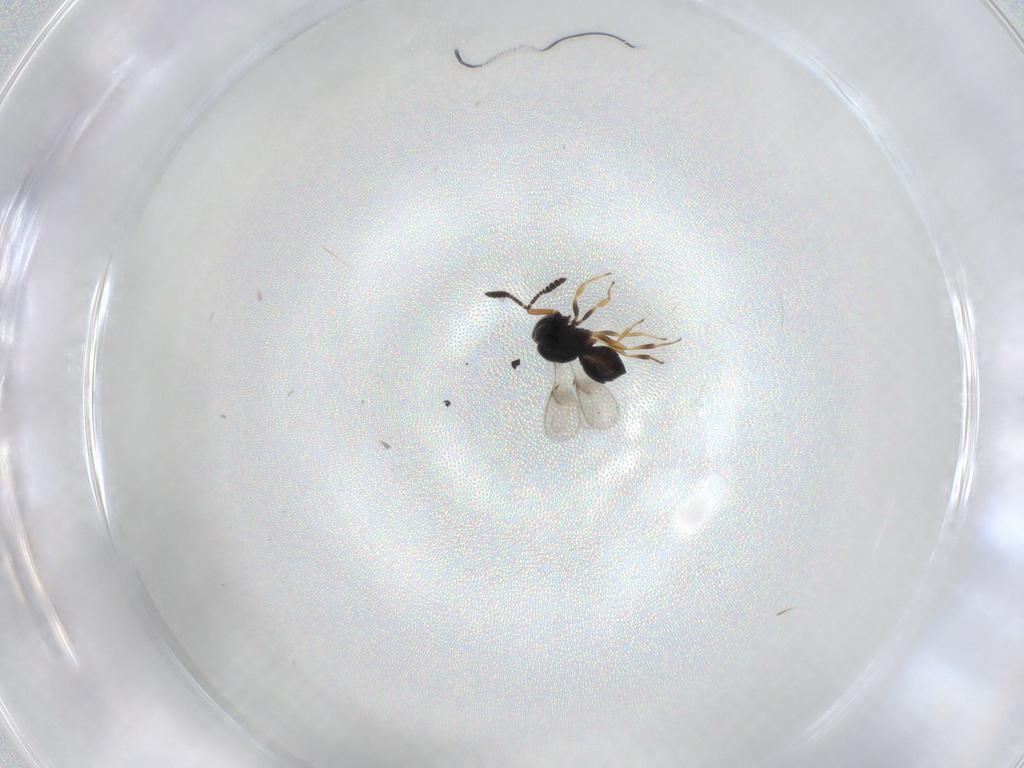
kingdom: Animalia
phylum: Arthropoda
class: Insecta
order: Hymenoptera
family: Scelionidae
